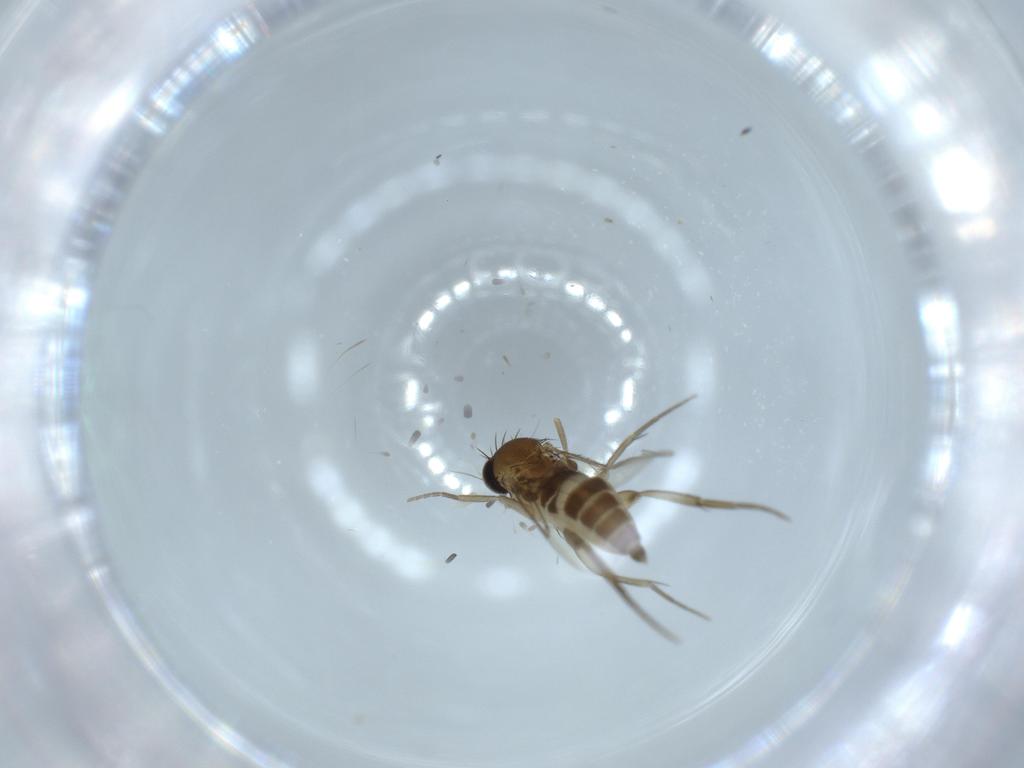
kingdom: Animalia
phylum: Arthropoda
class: Insecta
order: Diptera
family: Phoridae
